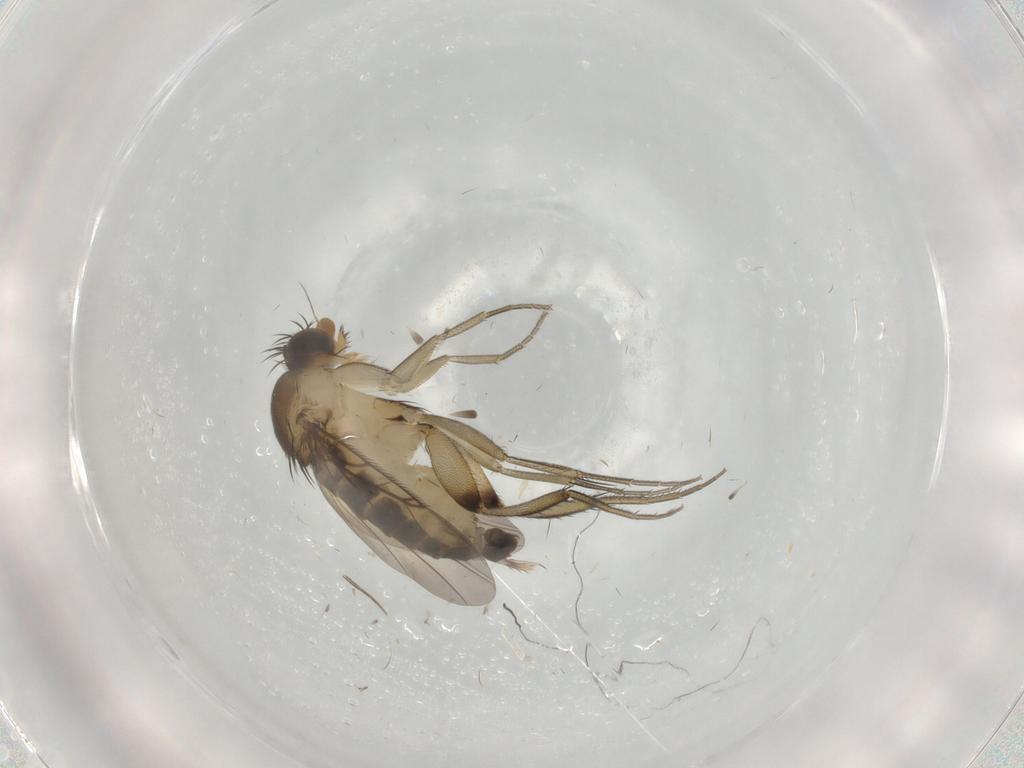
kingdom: Animalia
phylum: Arthropoda
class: Insecta
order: Diptera
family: Phoridae
